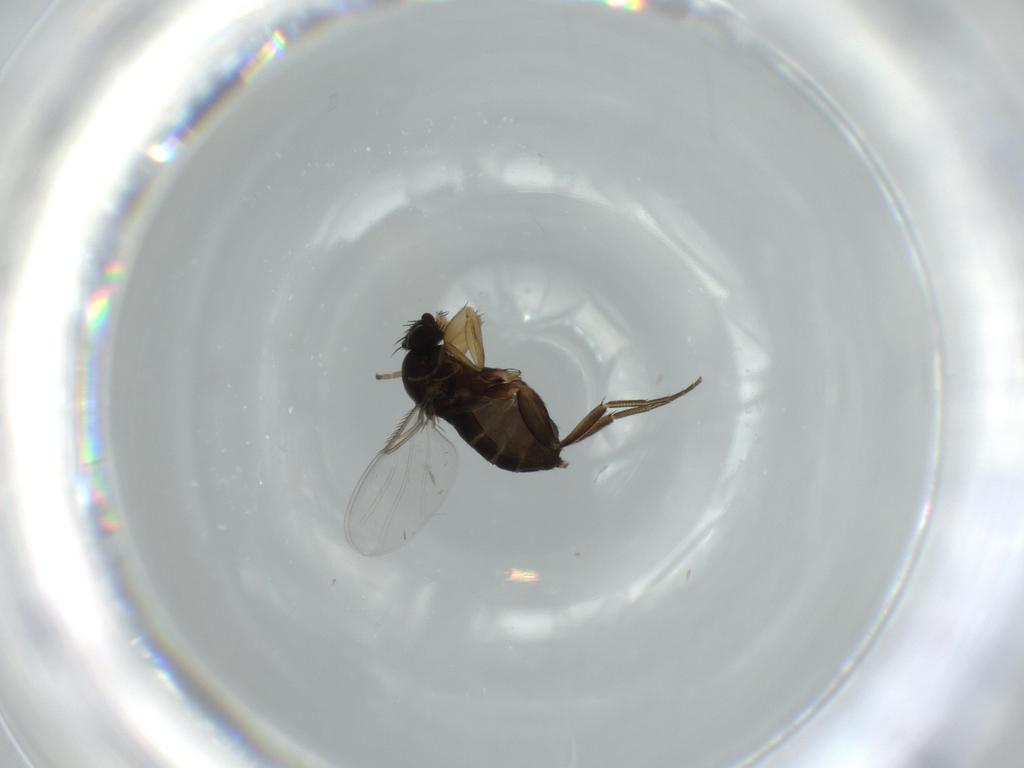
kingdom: Animalia
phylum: Arthropoda
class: Insecta
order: Diptera
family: Phoridae
